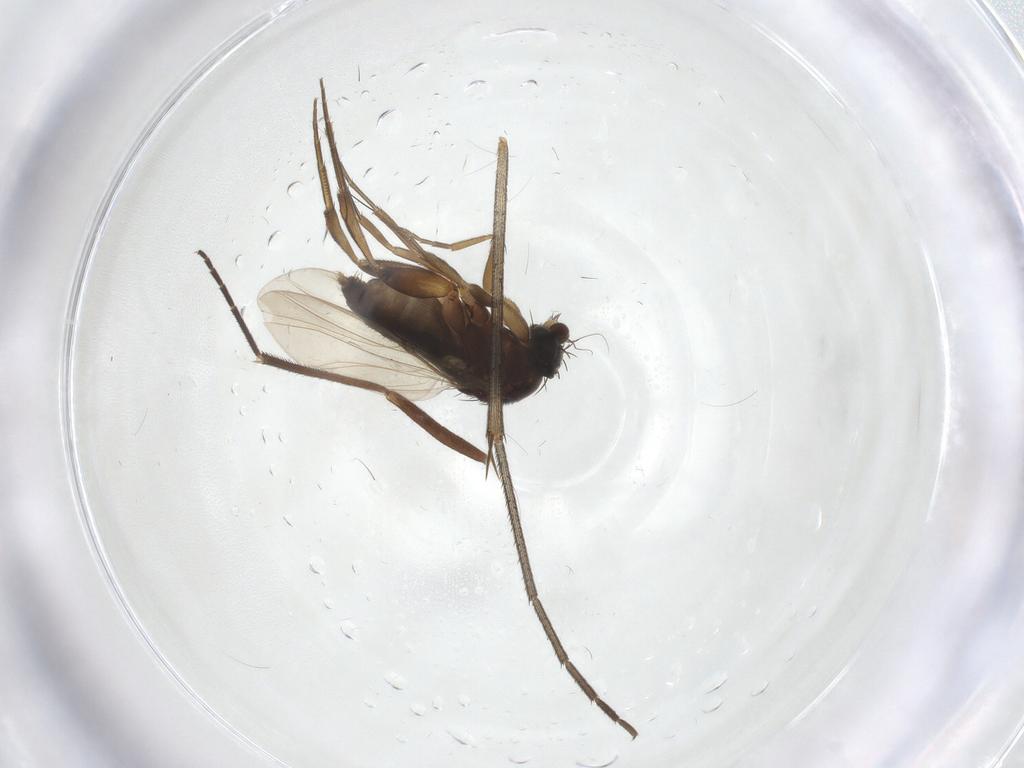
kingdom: Animalia
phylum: Arthropoda
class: Insecta
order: Diptera
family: Phoridae
